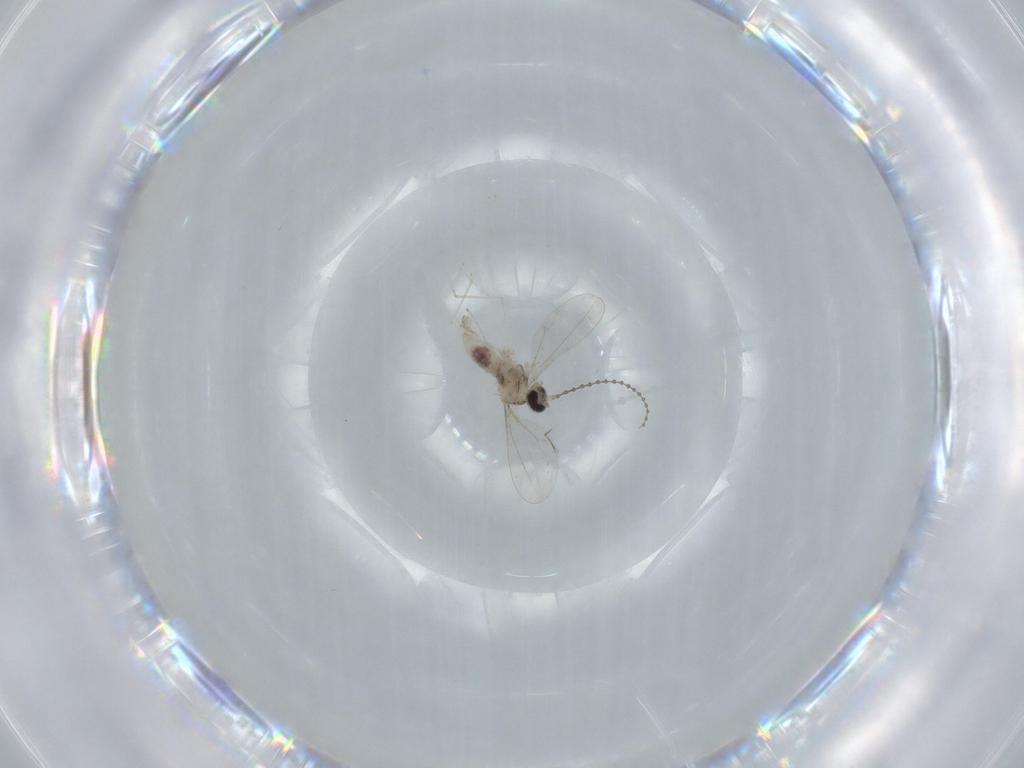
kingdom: Animalia
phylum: Arthropoda
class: Insecta
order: Diptera
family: Cecidomyiidae
